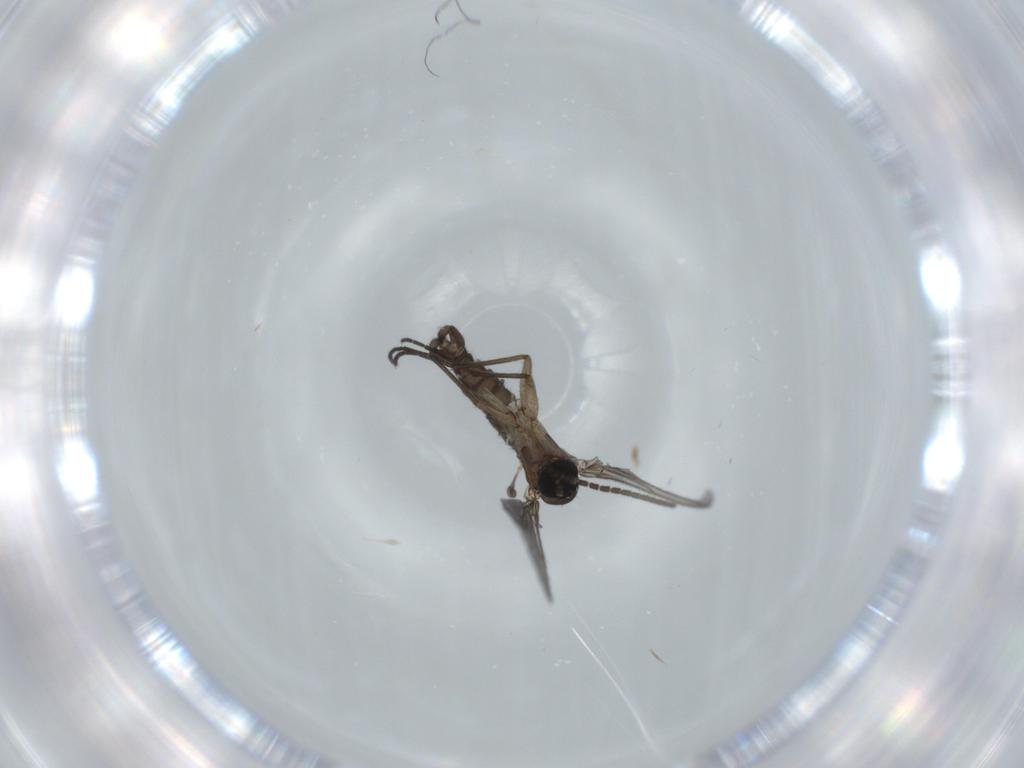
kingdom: Animalia
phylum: Arthropoda
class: Insecta
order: Diptera
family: Sciaridae
